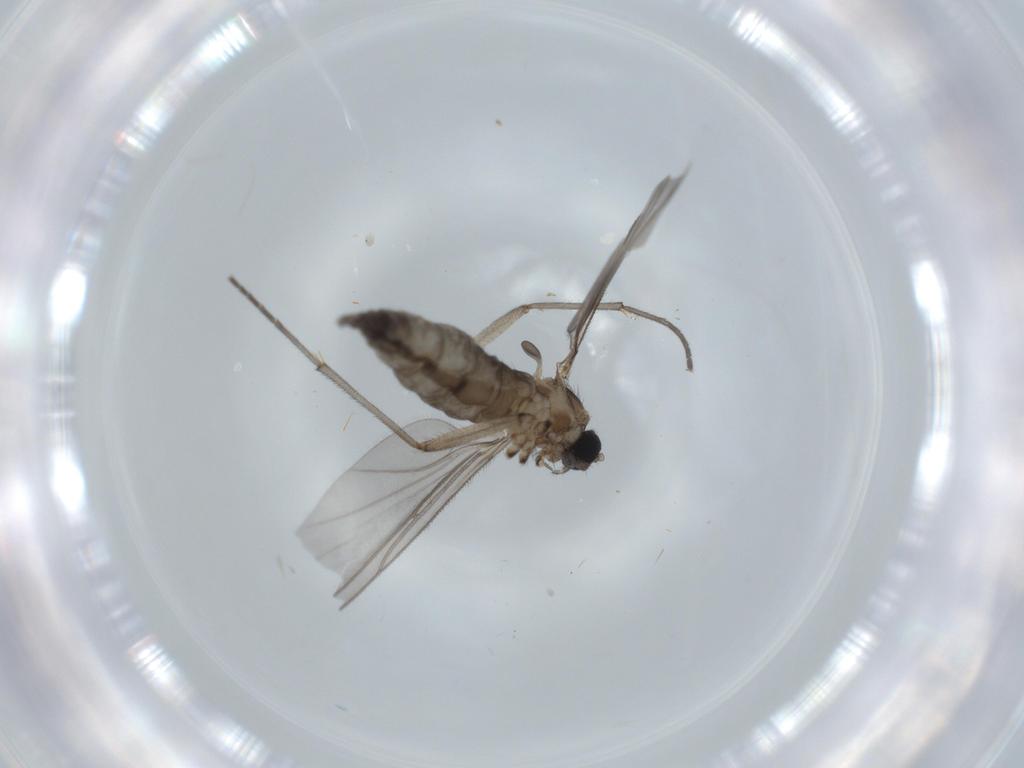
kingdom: Animalia
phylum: Arthropoda
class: Insecta
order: Diptera
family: Sciaridae
